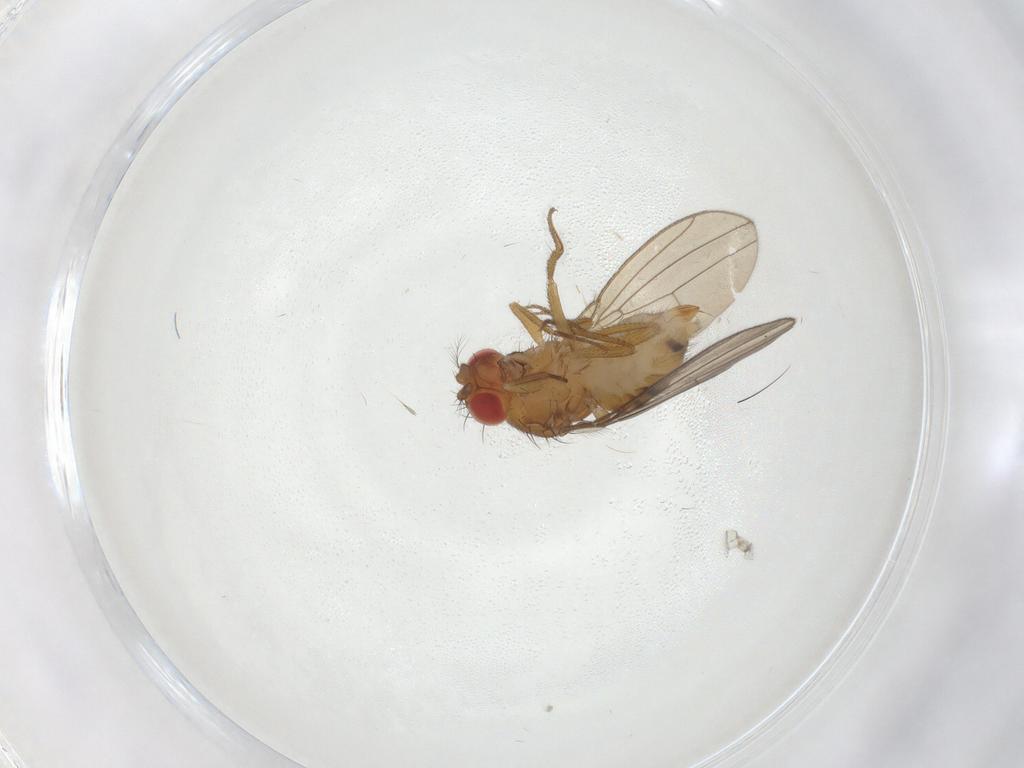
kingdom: Animalia
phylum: Arthropoda
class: Insecta
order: Diptera
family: Drosophilidae
